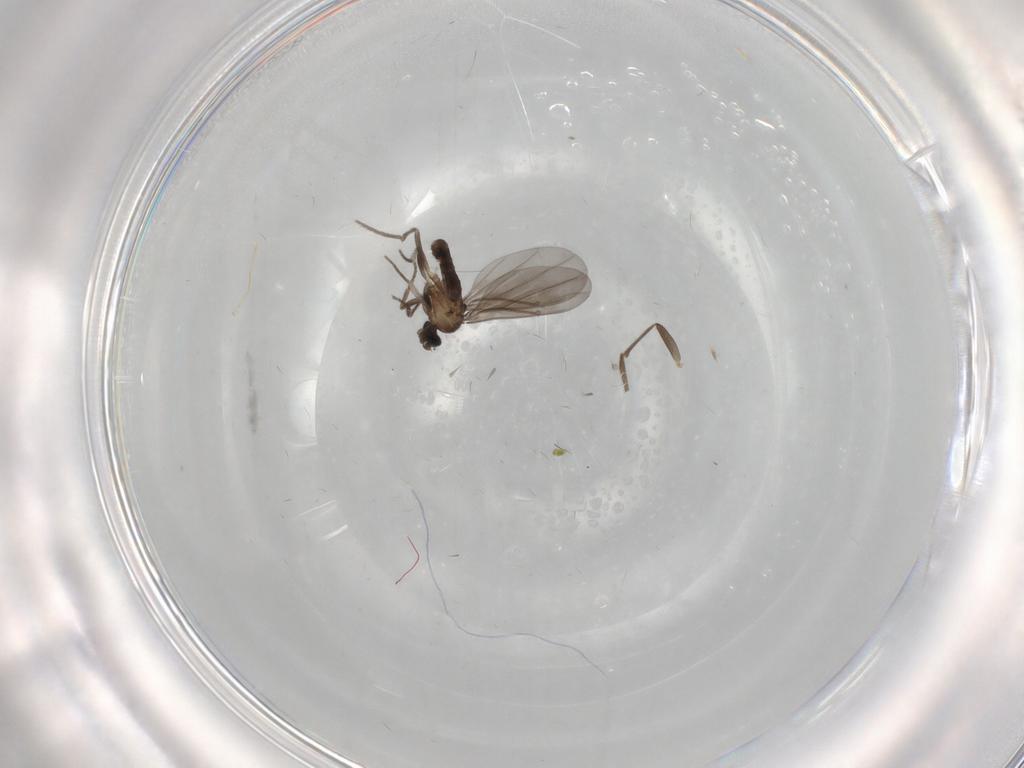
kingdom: Animalia
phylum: Arthropoda
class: Insecta
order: Diptera
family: Phoridae
